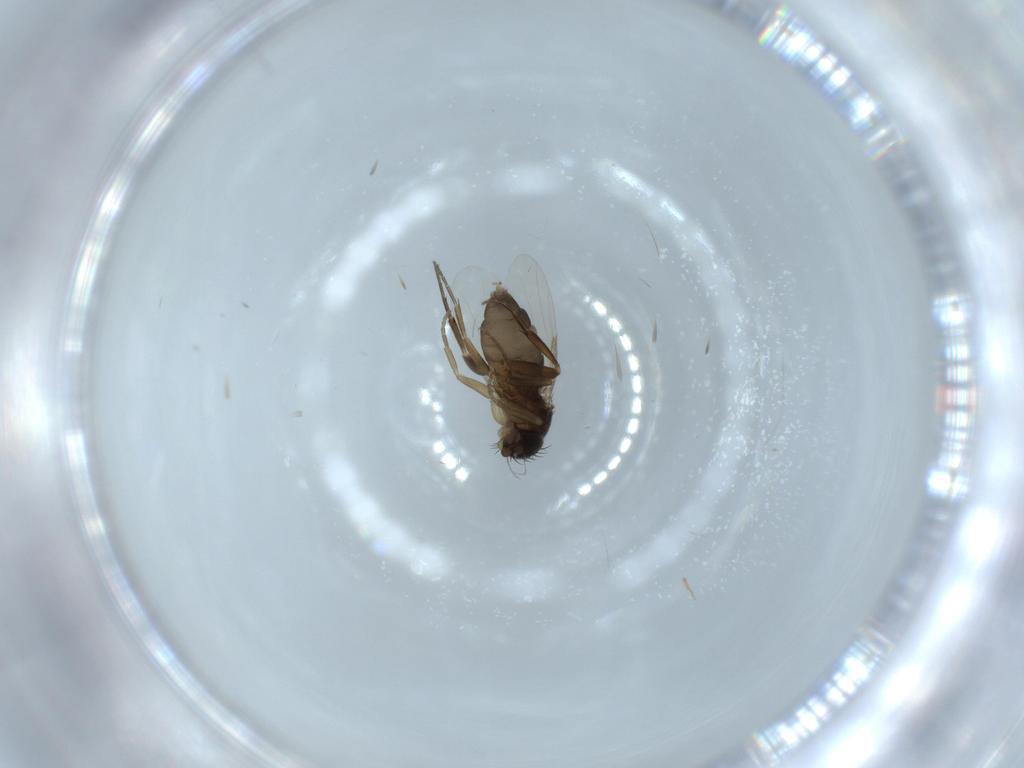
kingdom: Animalia
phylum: Arthropoda
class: Insecta
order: Diptera
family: Phoridae
